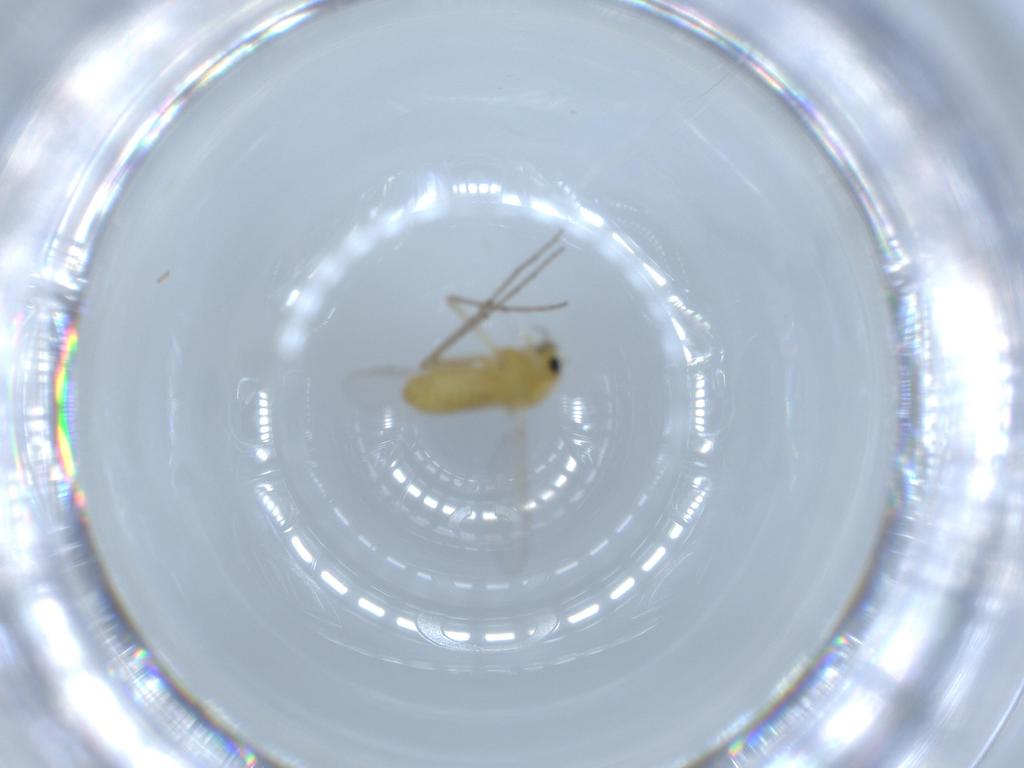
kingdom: Animalia
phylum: Arthropoda
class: Insecta
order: Diptera
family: Chironomidae
